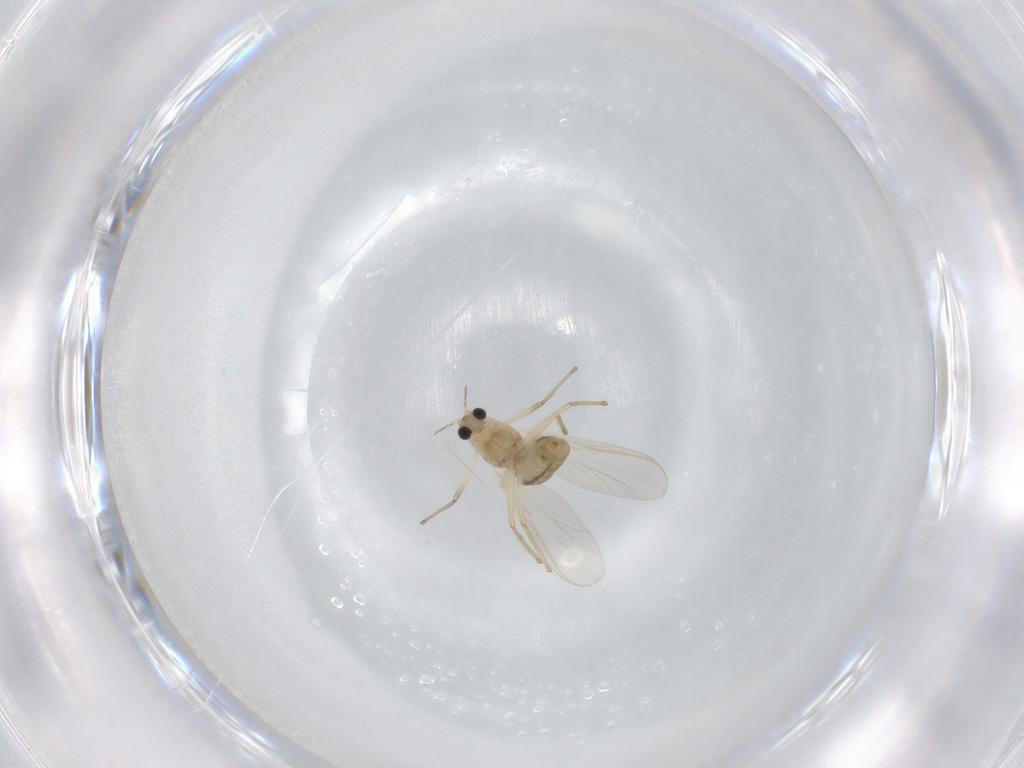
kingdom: Animalia
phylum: Arthropoda
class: Insecta
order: Diptera
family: Chironomidae
